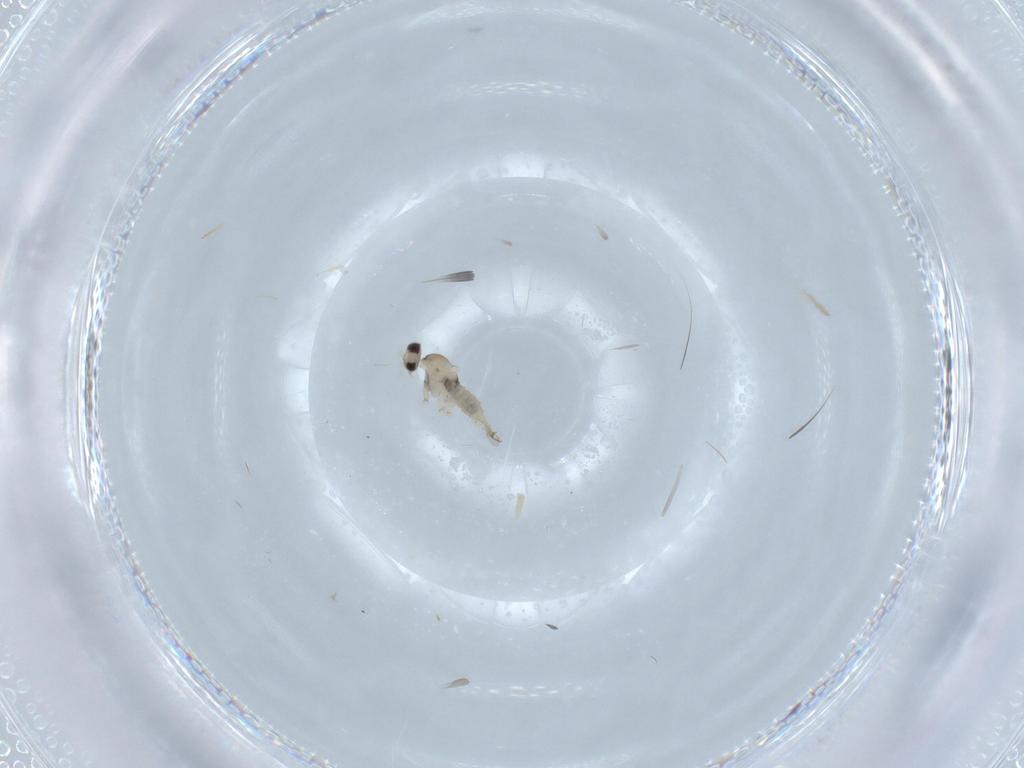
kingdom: Animalia
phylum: Arthropoda
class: Insecta
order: Diptera
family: Cecidomyiidae
